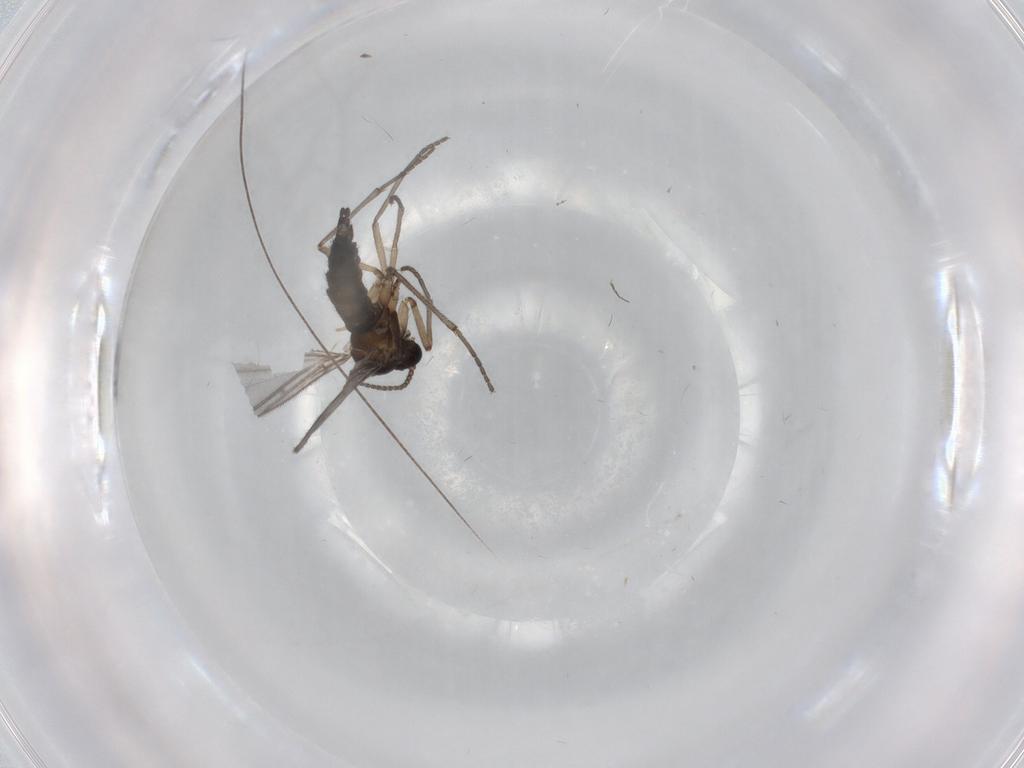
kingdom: Animalia
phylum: Arthropoda
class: Insecta
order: Diptera
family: Sciaridae
